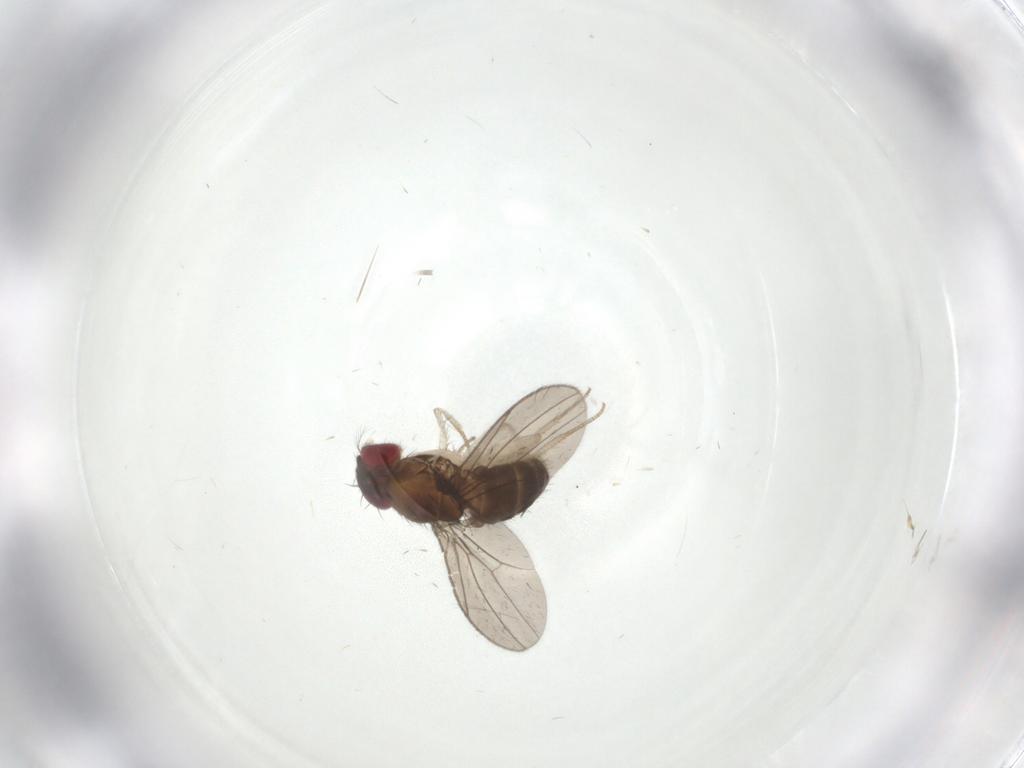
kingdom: Animalia
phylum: Arthropoda
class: Insecta
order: Diptera
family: Drosophilidae
